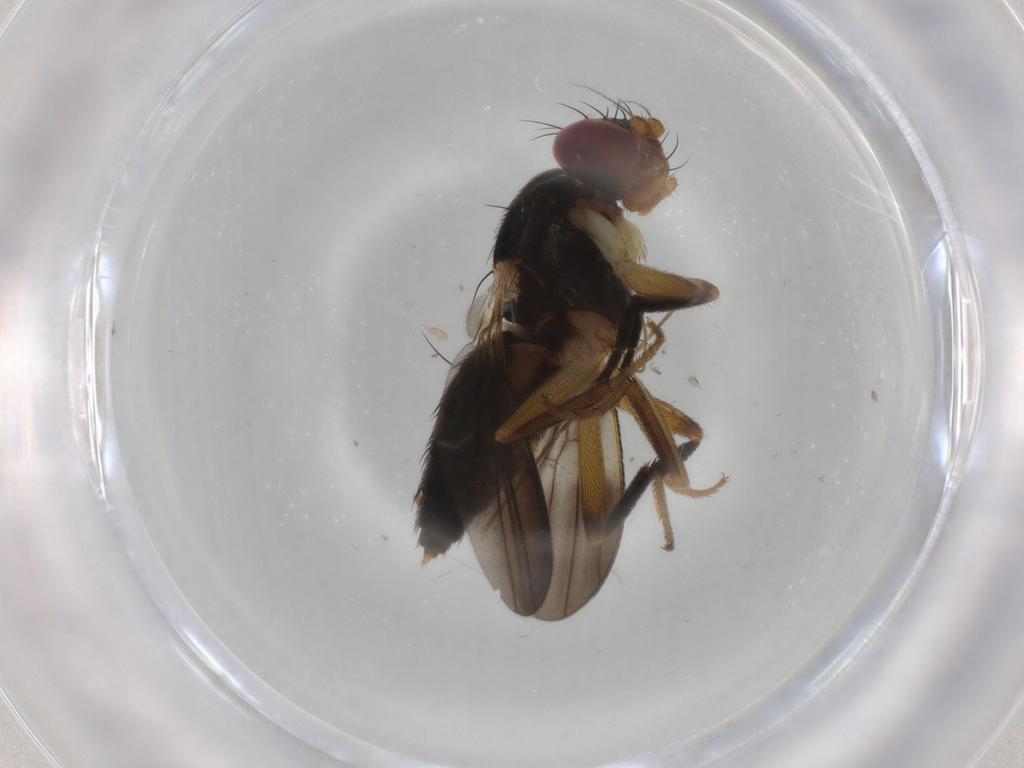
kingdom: Animalia
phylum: Arthropoda
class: Insecta
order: Diptera
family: Clusiidae
